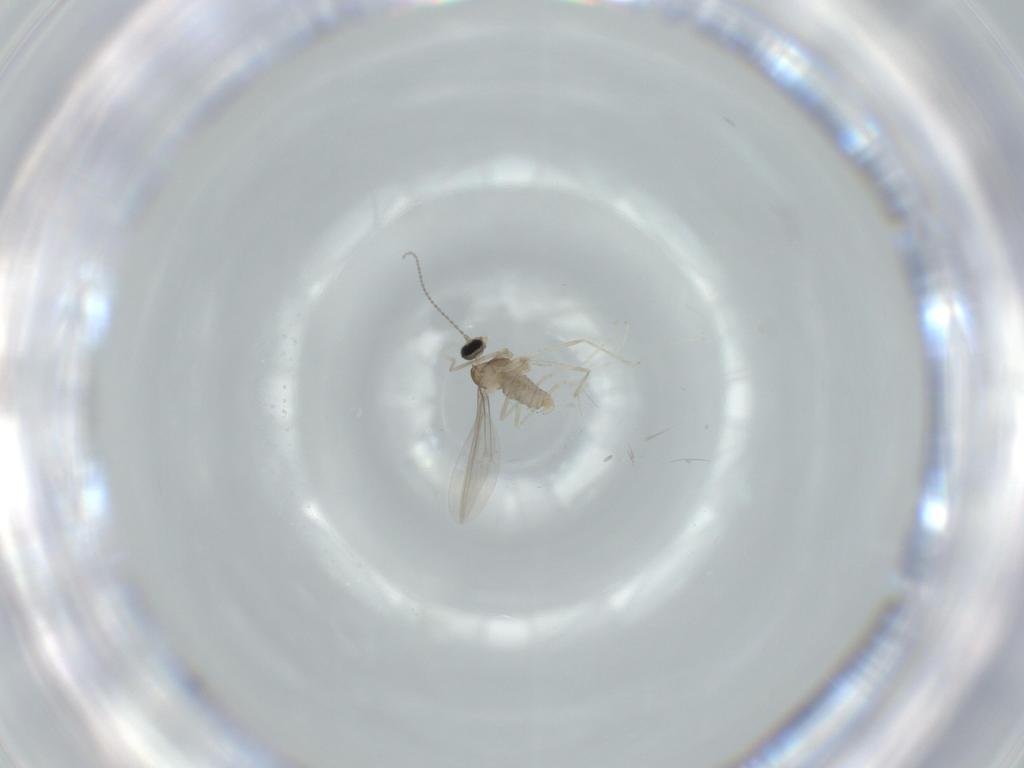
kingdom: Animalia
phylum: Arthropoda
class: Insecta
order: Diptera
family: Cecidomyiidae
